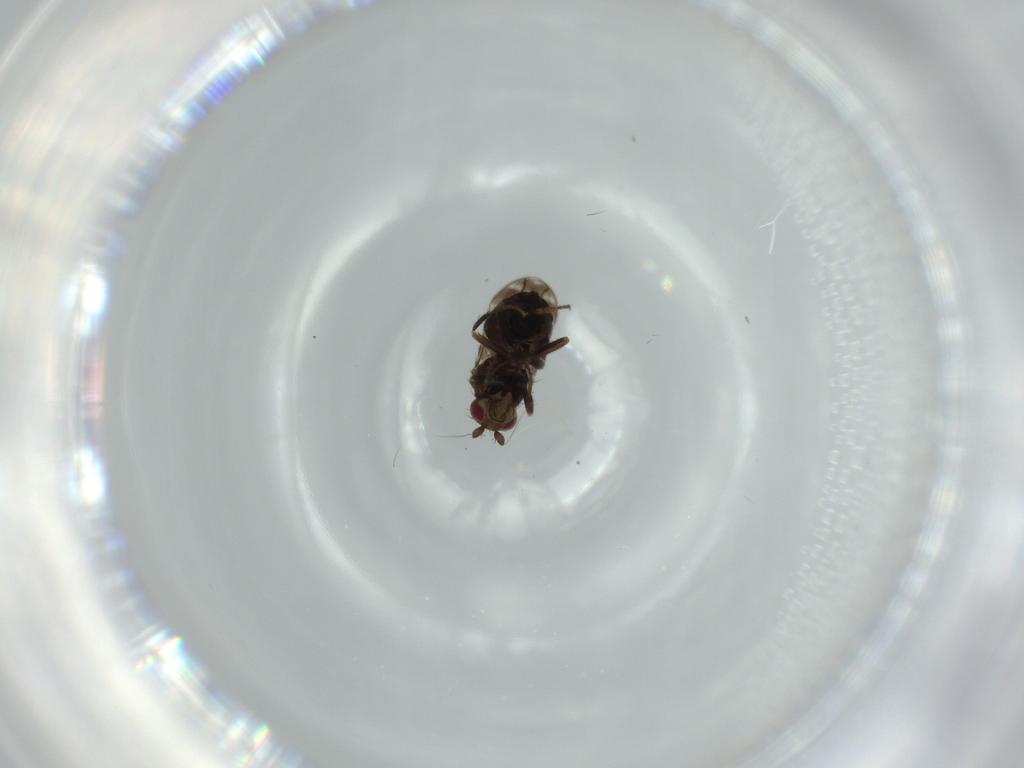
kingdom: Animalia
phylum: Arthropoda
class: Insecta
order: Diptera
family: Sphaeroceridae
